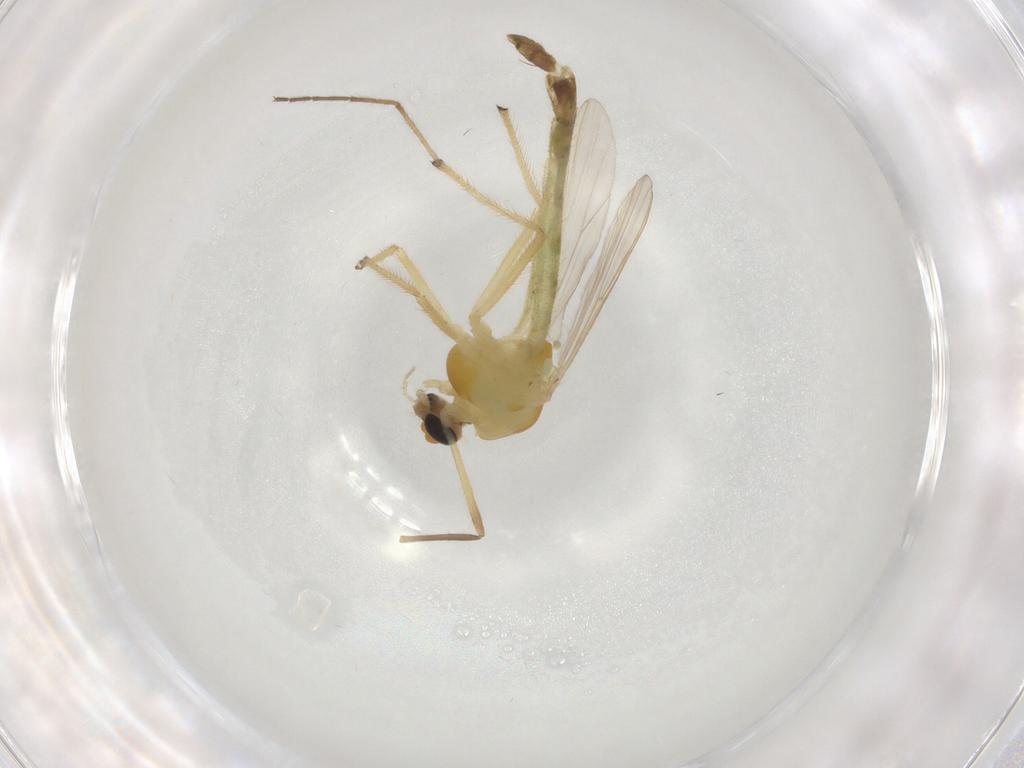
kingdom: Animalia
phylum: Arthropoda
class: Insecta
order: Diptera
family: Chironomidae
